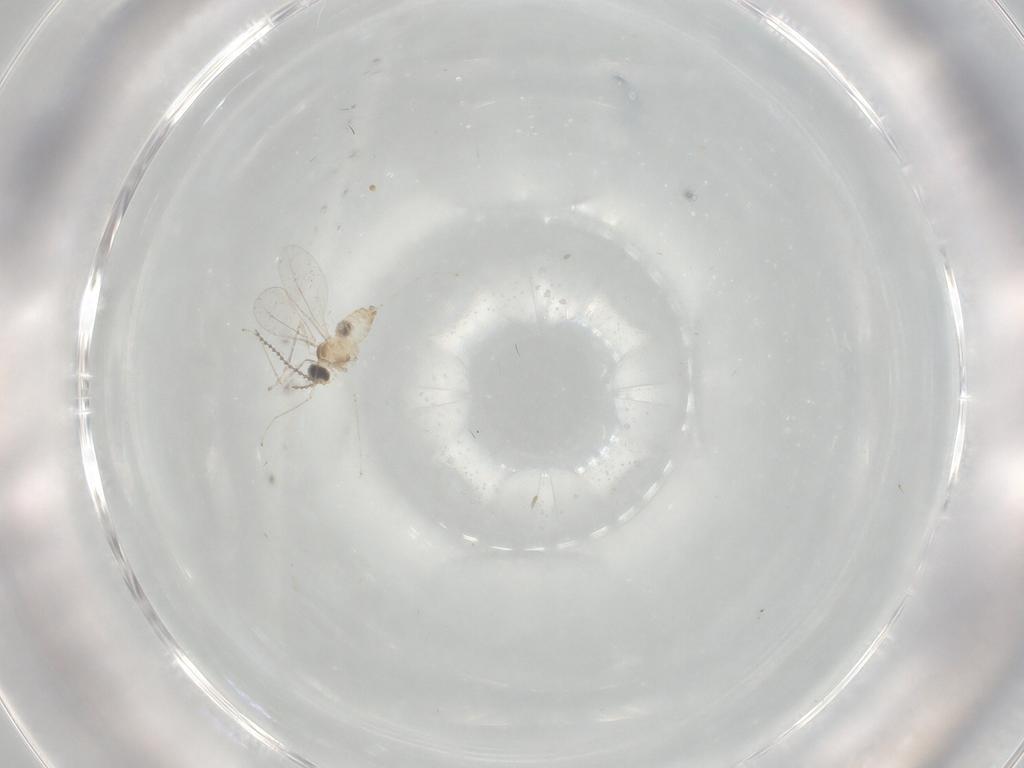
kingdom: Animalia
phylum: Arthropoda
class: Insecta
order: Diptera
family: Cecidomyiidae
